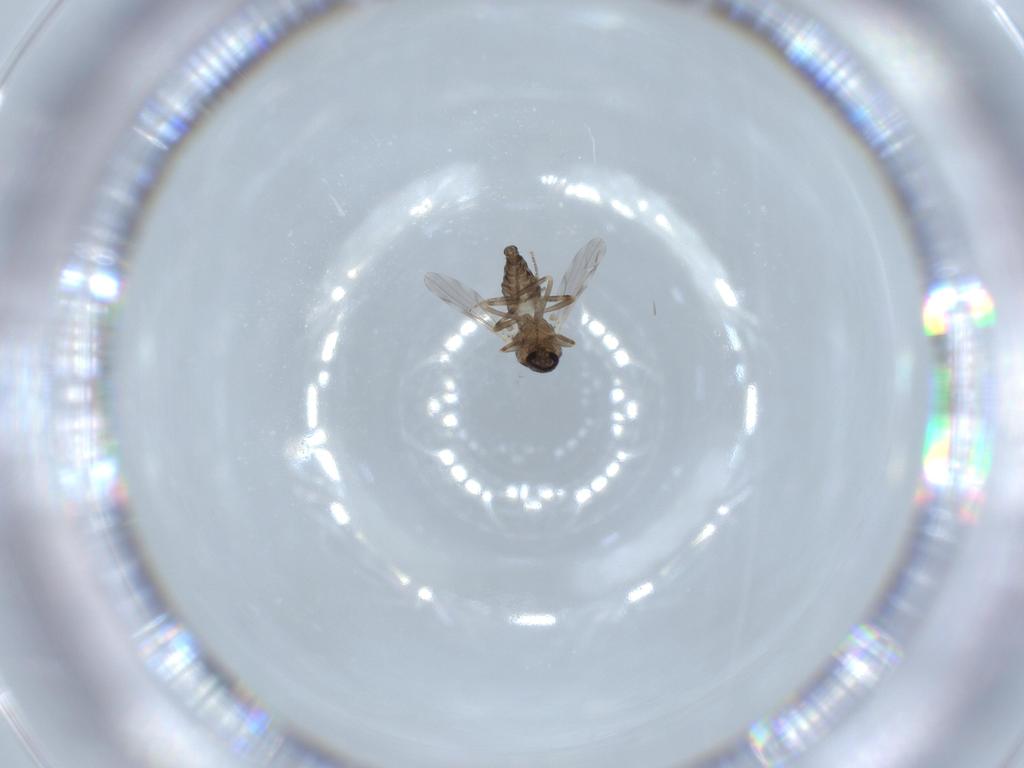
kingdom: Animalia
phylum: Arthropoda
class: Insecta
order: Diptera
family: Ceratopogonidae
